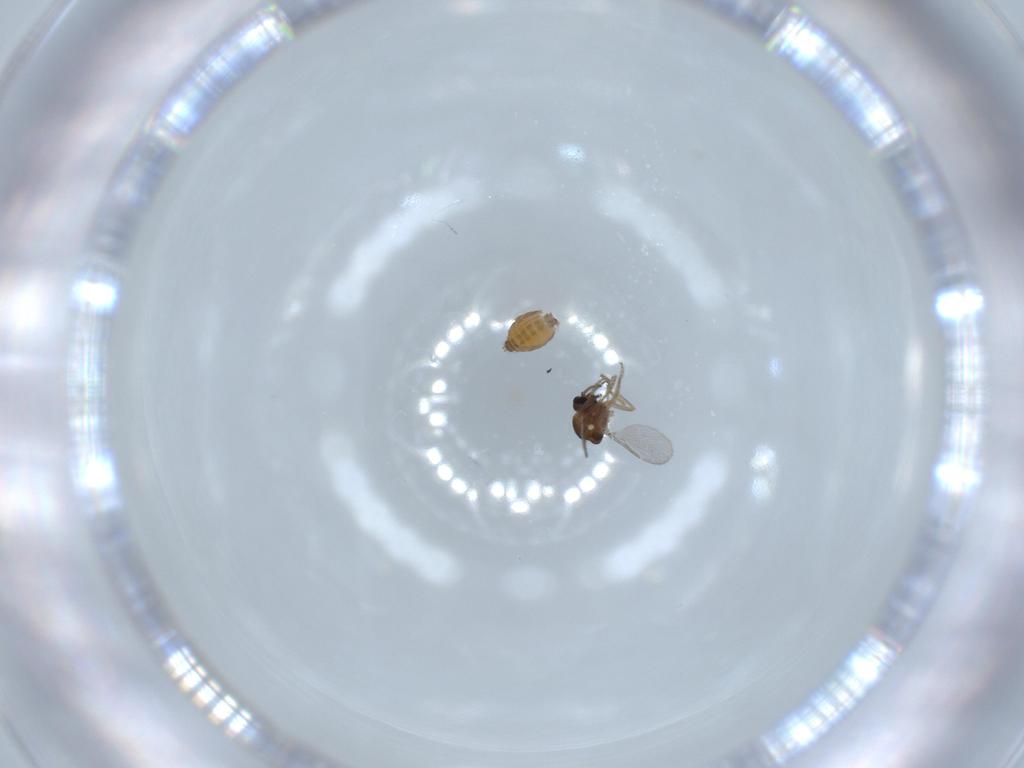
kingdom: Animalia
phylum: Arthropoda
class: Insecta
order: Diptera
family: Ceratopogonidae
